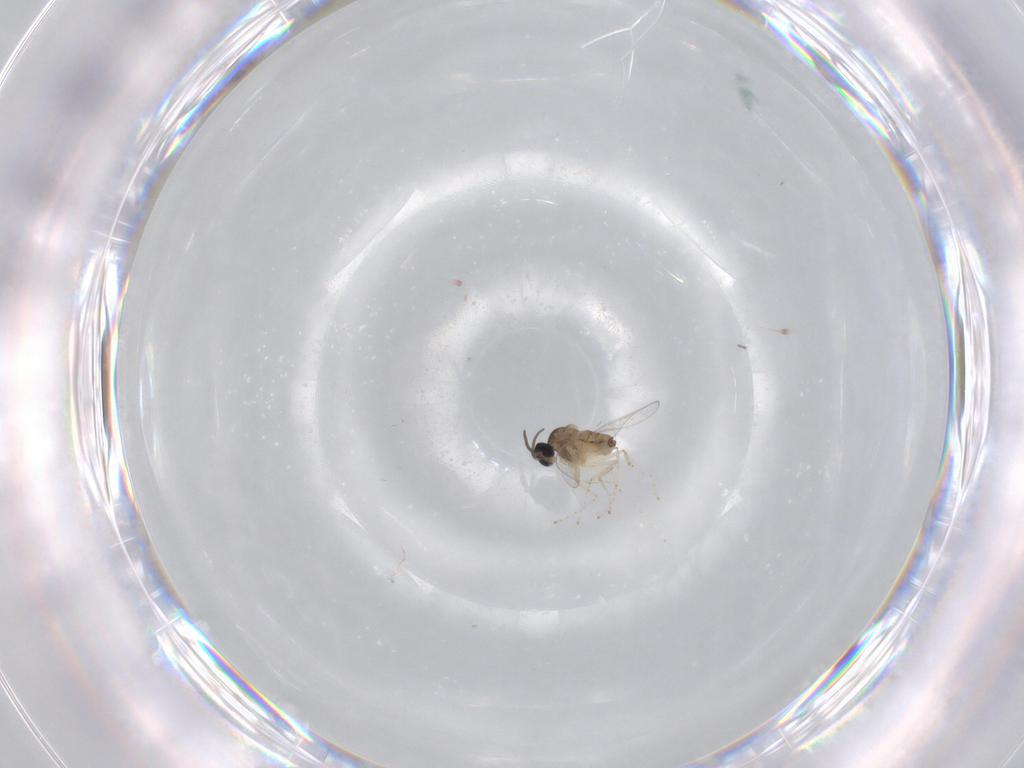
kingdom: Animalia
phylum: Arthropoda
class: Insecta
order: Diptera
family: Cecidomyiidae
